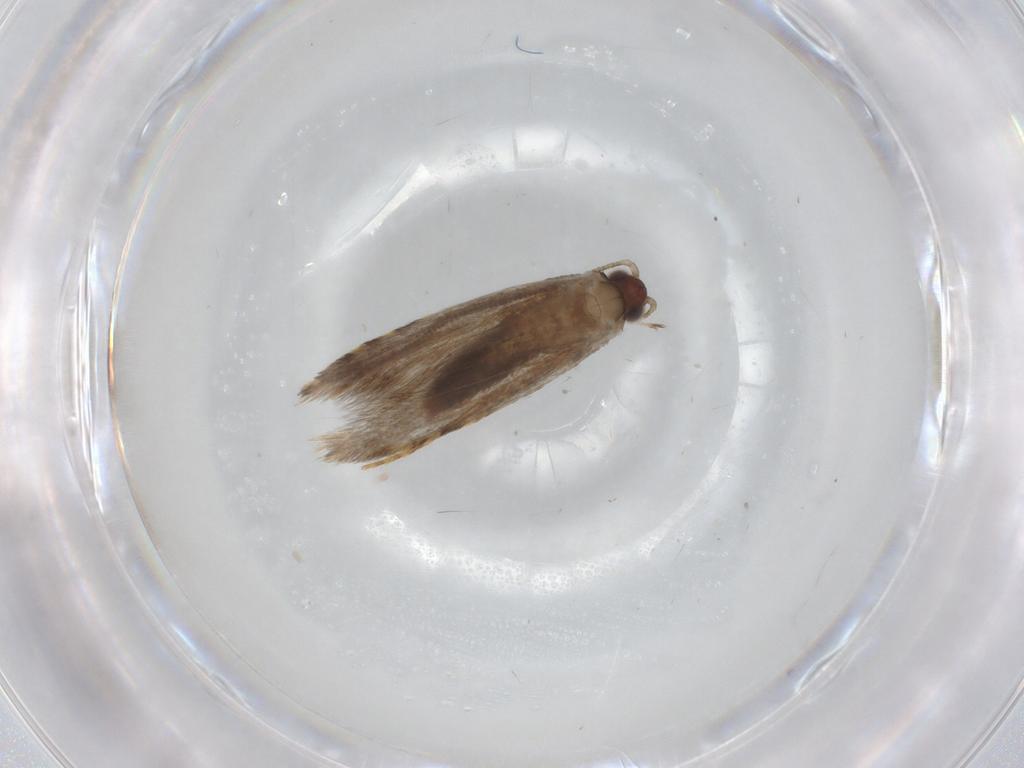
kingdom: Animalia
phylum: Arthropoda
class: Insecta
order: Lepidoptera
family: Tineidae
